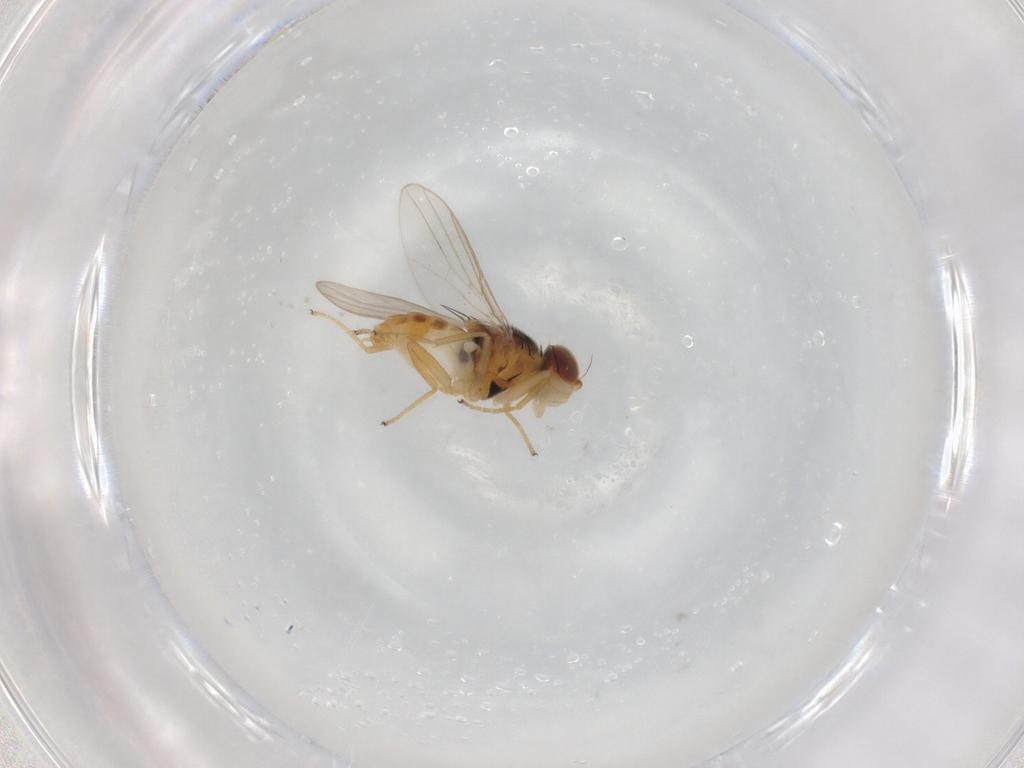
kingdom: Animalia
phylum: Arthropoda
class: Insecta
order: Diptera
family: Chloropidae
